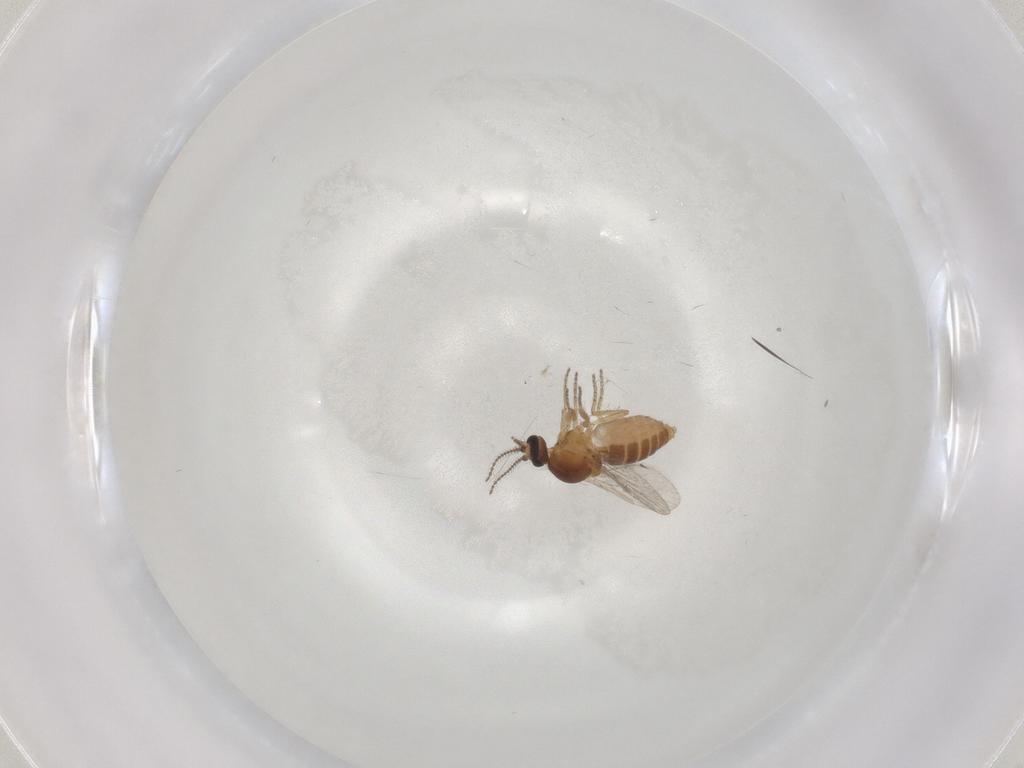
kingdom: Animalia
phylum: Arthropoda
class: Insecta
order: Diptera
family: Ceratopogonidae
